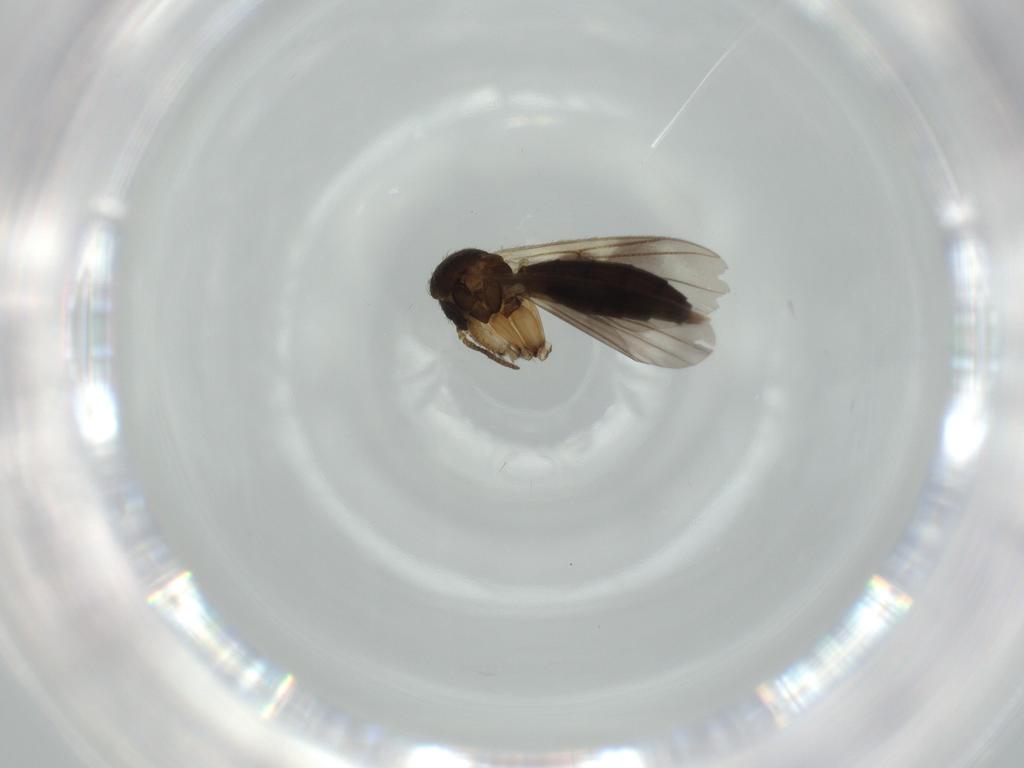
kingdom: Animalia
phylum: Arthropoda
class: Insecta
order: Diptera
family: Phoridae
